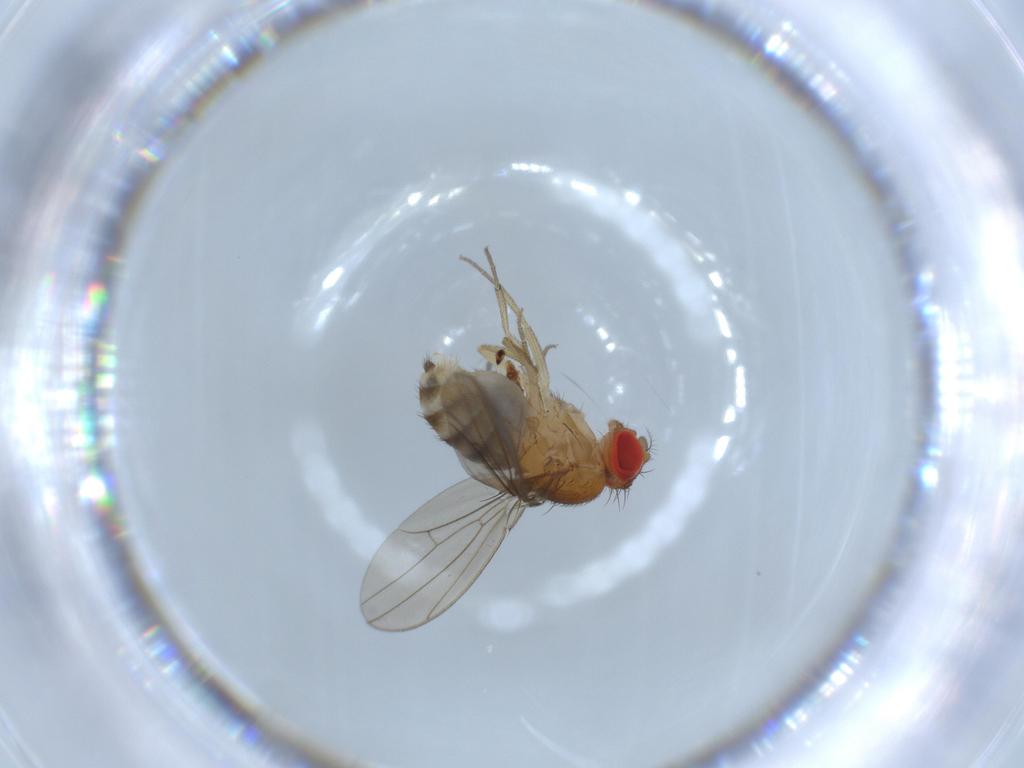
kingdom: Animalia
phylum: Arthropoda
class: Insecta
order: Diptera
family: Drosophilidae
